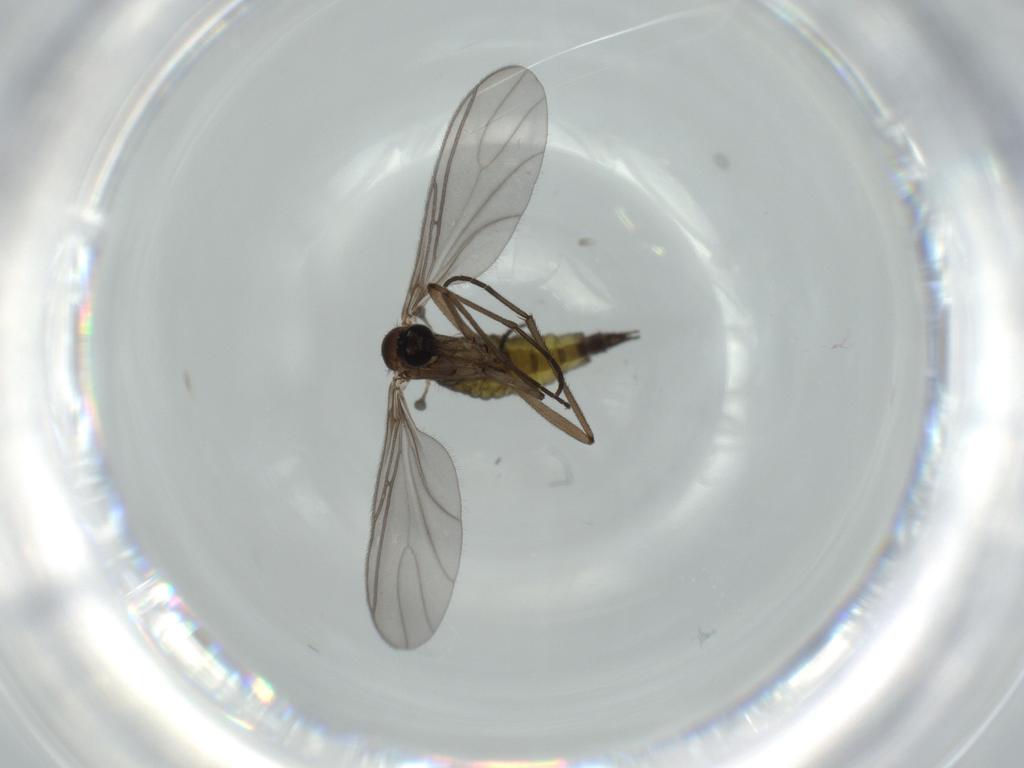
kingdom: Animalia
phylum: Arthropoda
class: Insecta
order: Diptera
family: Sciaridae
